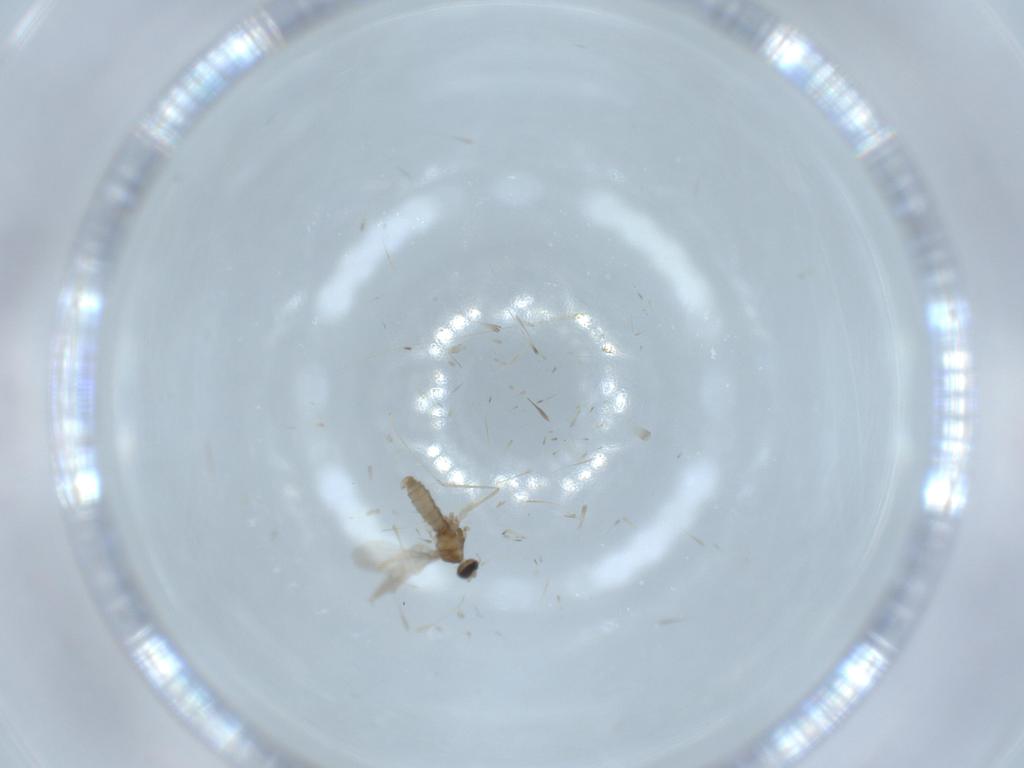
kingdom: Animalia
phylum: Arthropoda
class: Insecta
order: Diptera
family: Cecidomyiidae
